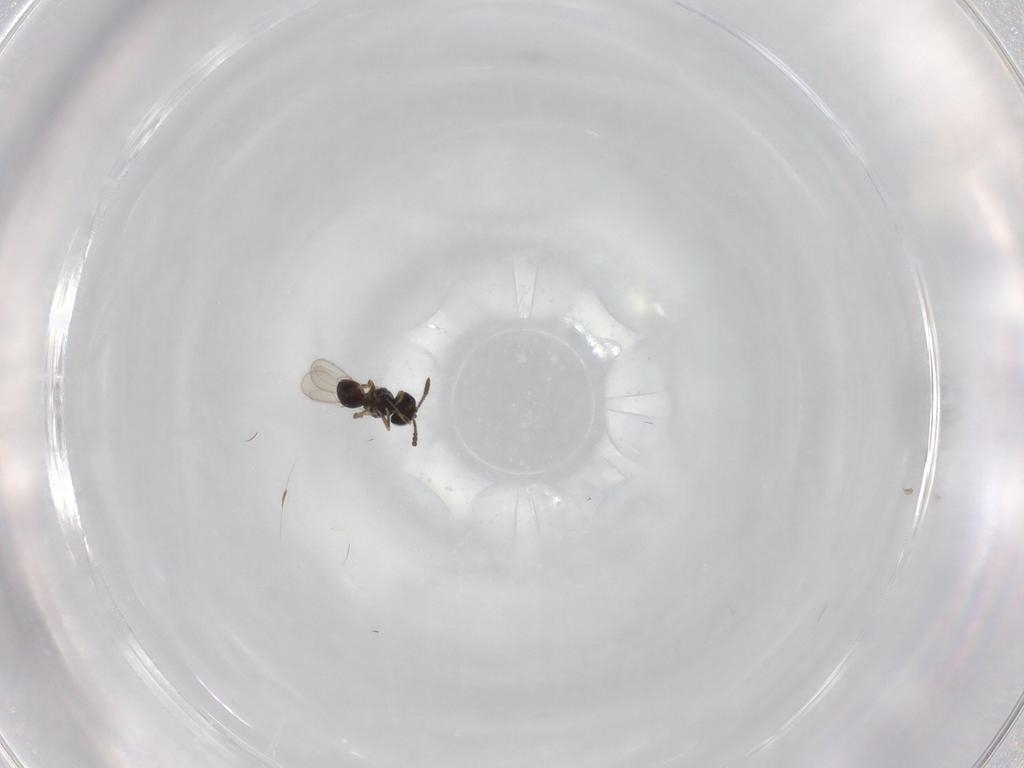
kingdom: Animalia
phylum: Arthropoda
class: Insecta
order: Hymenoptera
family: Scelionidae
